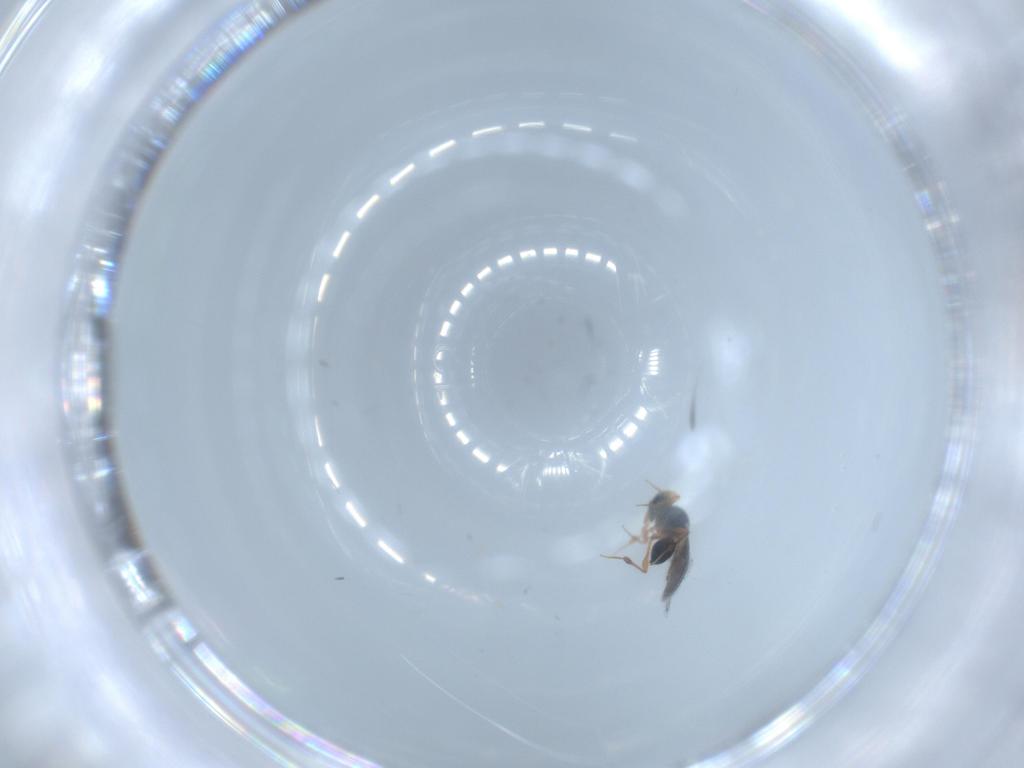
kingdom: Animalia
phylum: Arthropoda
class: Insecta
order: Hymenoptera
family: Platygastridae
